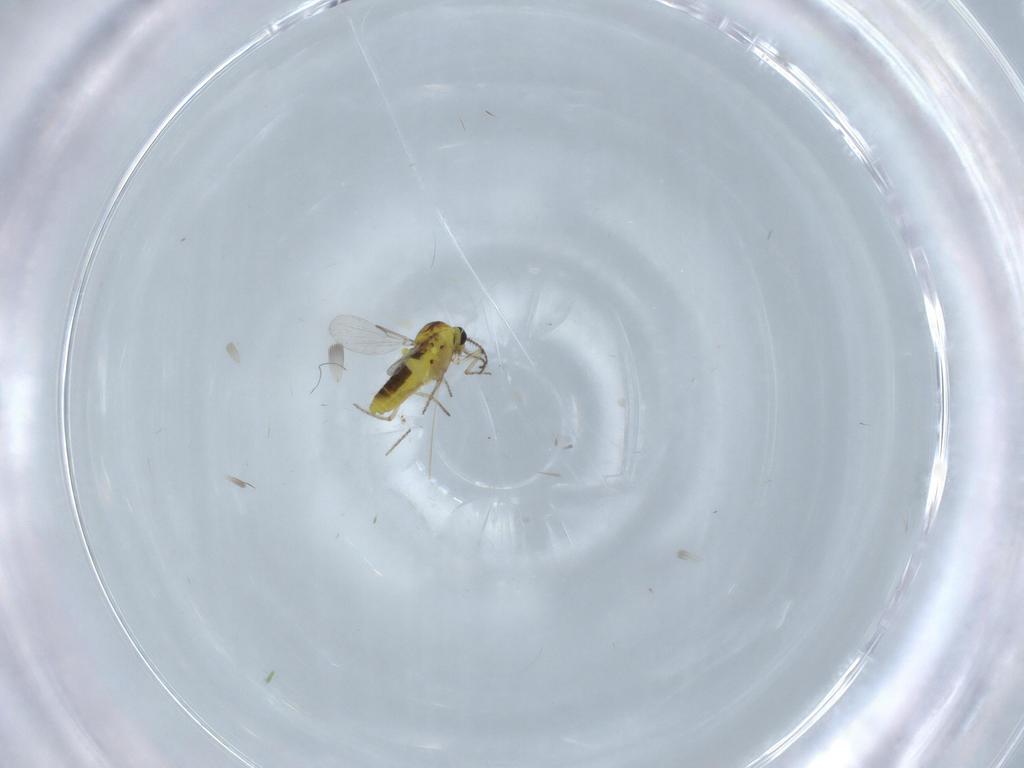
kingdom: Animalia
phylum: Arthropoda
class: Insecta
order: Diptera
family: Ceratopogonidae
